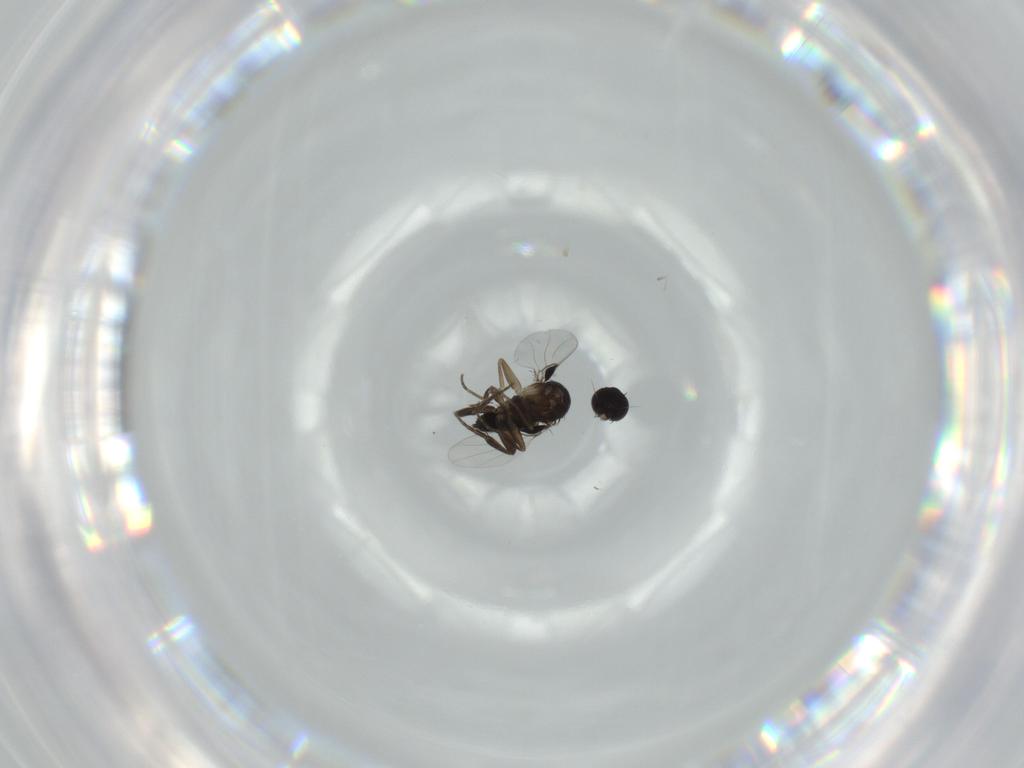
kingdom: Animalia
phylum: Arthropoda
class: Insecta
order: Diptera
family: Phoridae
